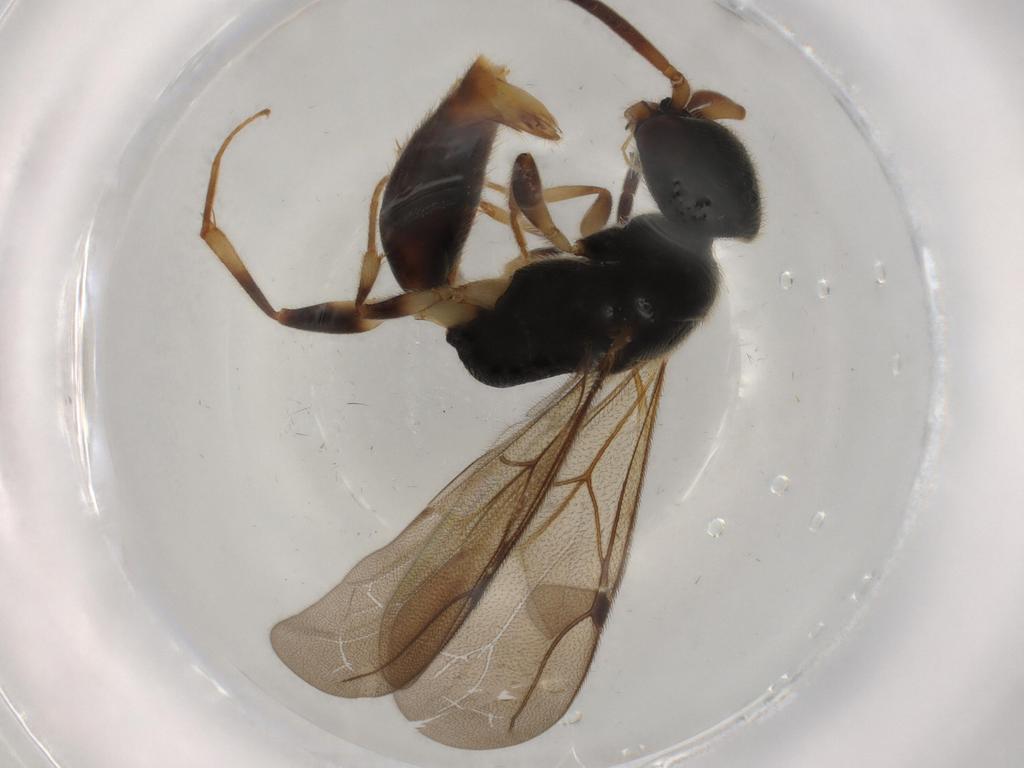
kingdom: Animalia
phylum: Arthropoda
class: Insecta
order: Hymenoptera
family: Bethylidae
